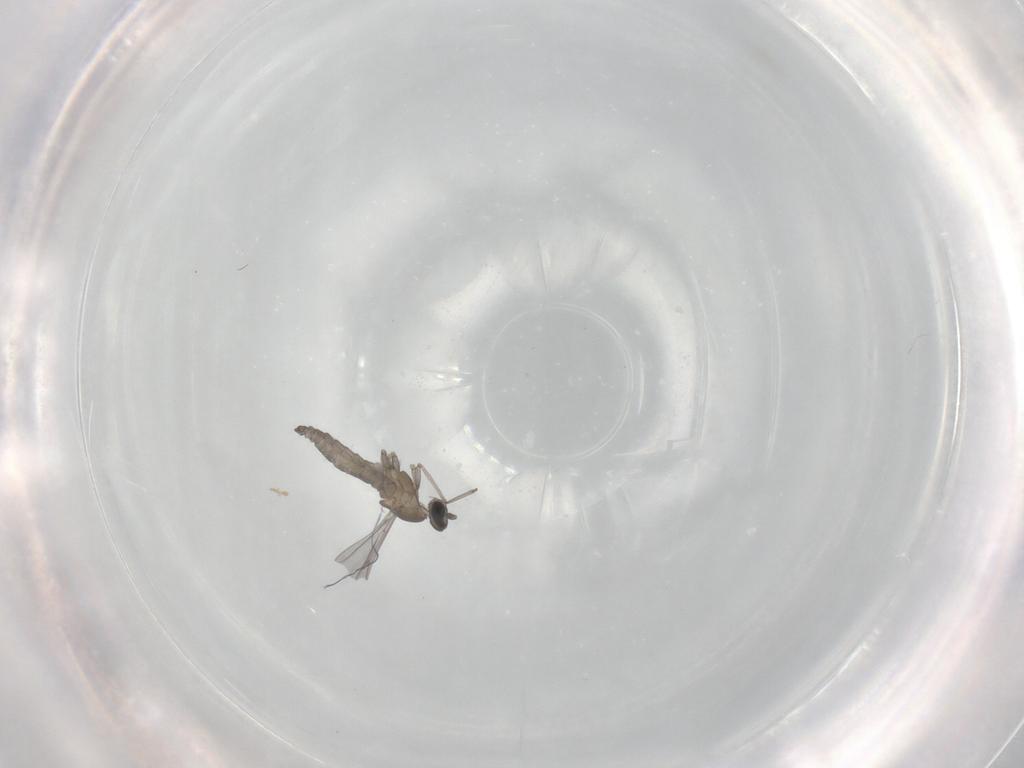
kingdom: Animalia
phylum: Arthropoda
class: Insecta
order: Diptera
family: Cecidomyiidae
